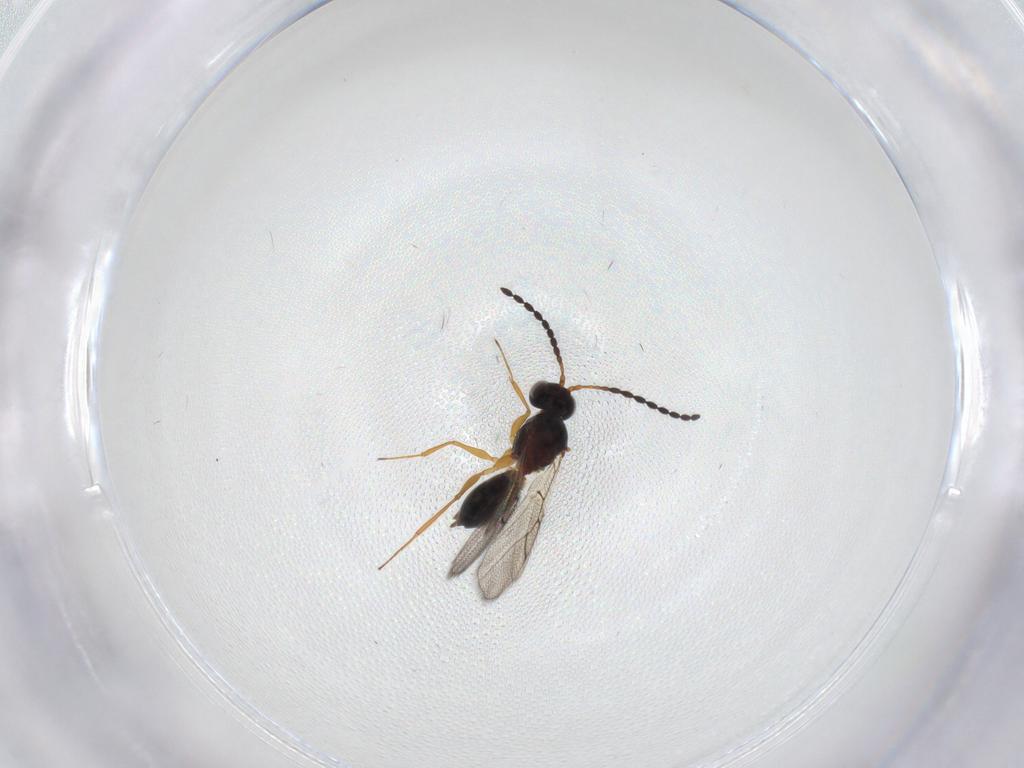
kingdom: Animalia
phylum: Arthropoda
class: Insecta
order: Hymenoptera
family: Figitidae
